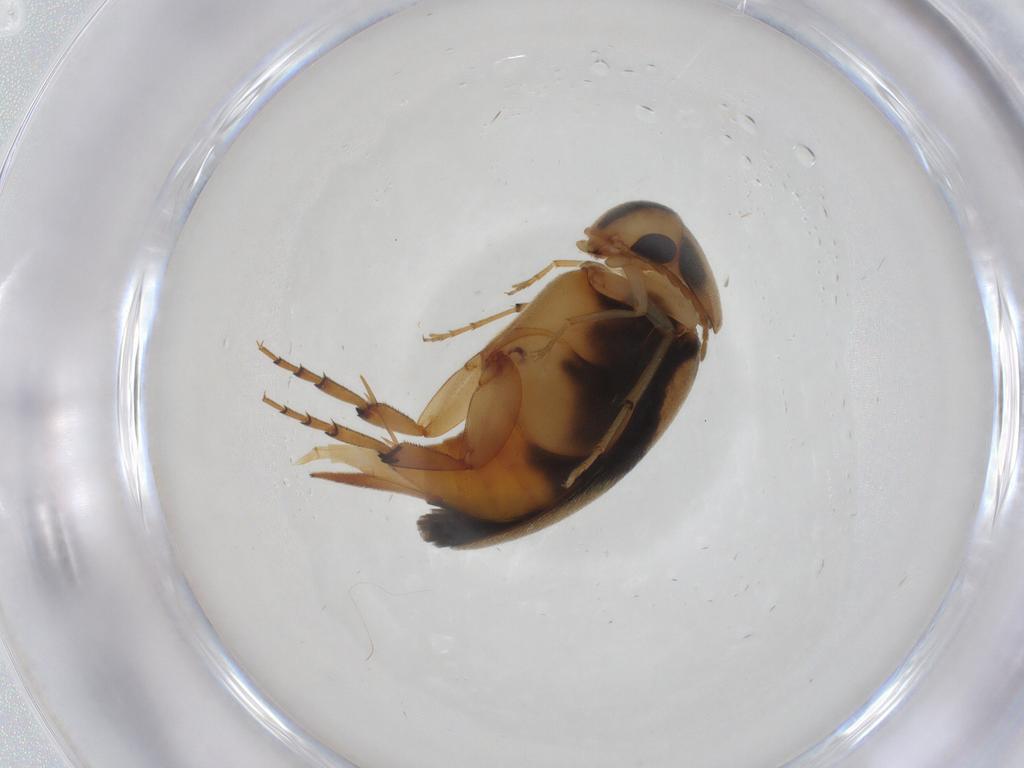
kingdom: Animalia
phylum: Arthropoda
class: Insecta
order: Coleoptera
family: Mordellidae
